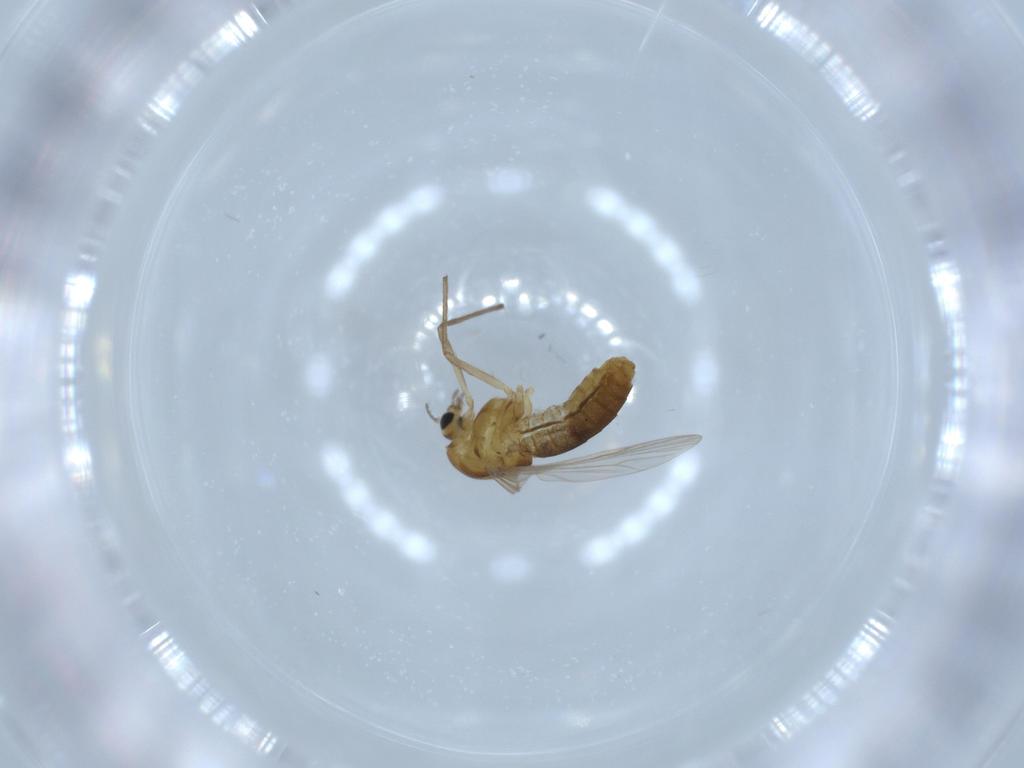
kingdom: Animalia
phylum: Arthropoda
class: Insecta
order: Diptera
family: Chironomidae
